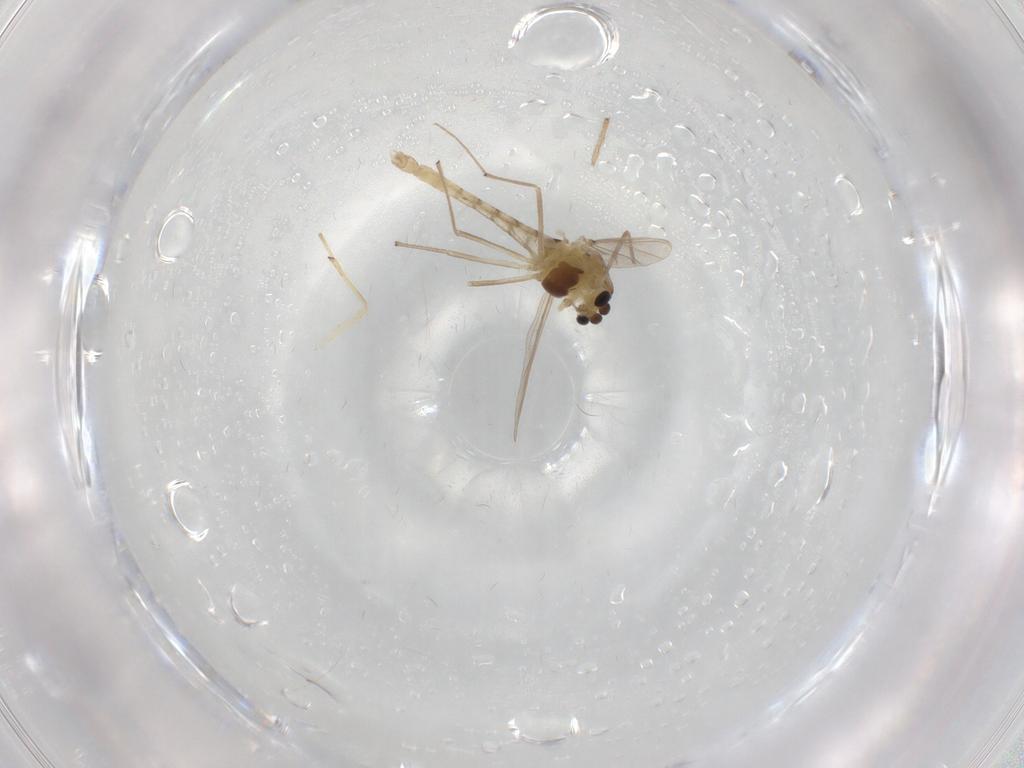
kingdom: Animalia
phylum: Arthropoda
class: Insecta
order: Diptera
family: Chironomidae
